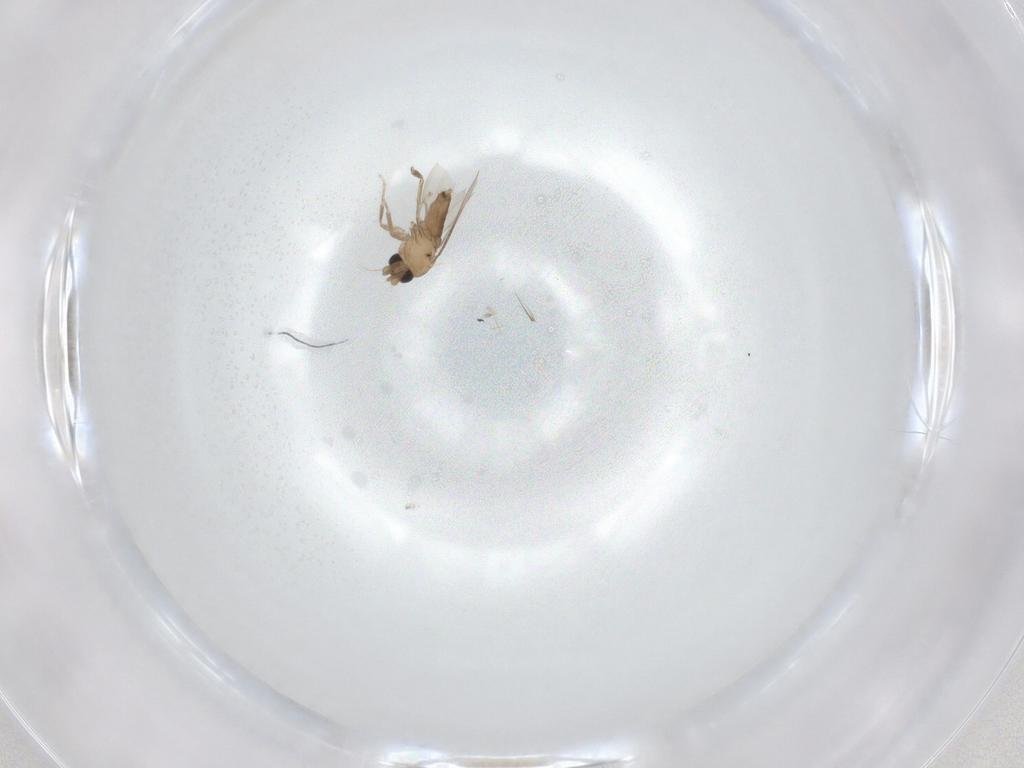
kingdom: Animalia
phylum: Arthropoda
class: Insecta
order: Diptera
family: Phoridae
